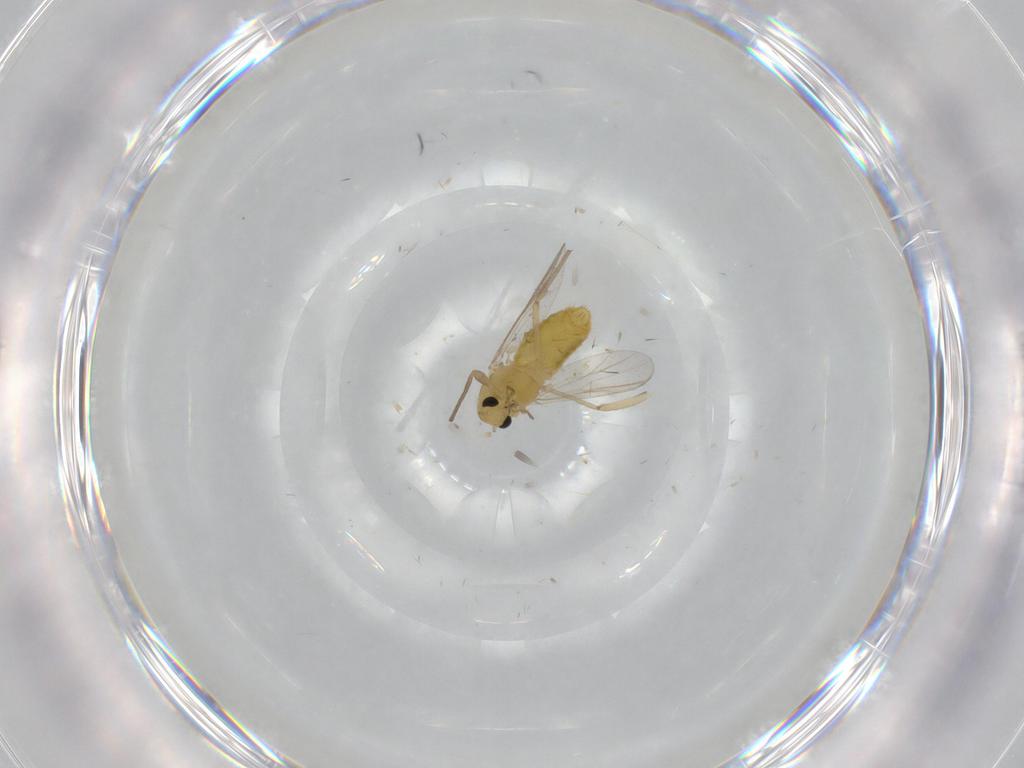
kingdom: Animalia
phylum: Arthropoda
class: Insecta
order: Diptera
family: Chironomidae
